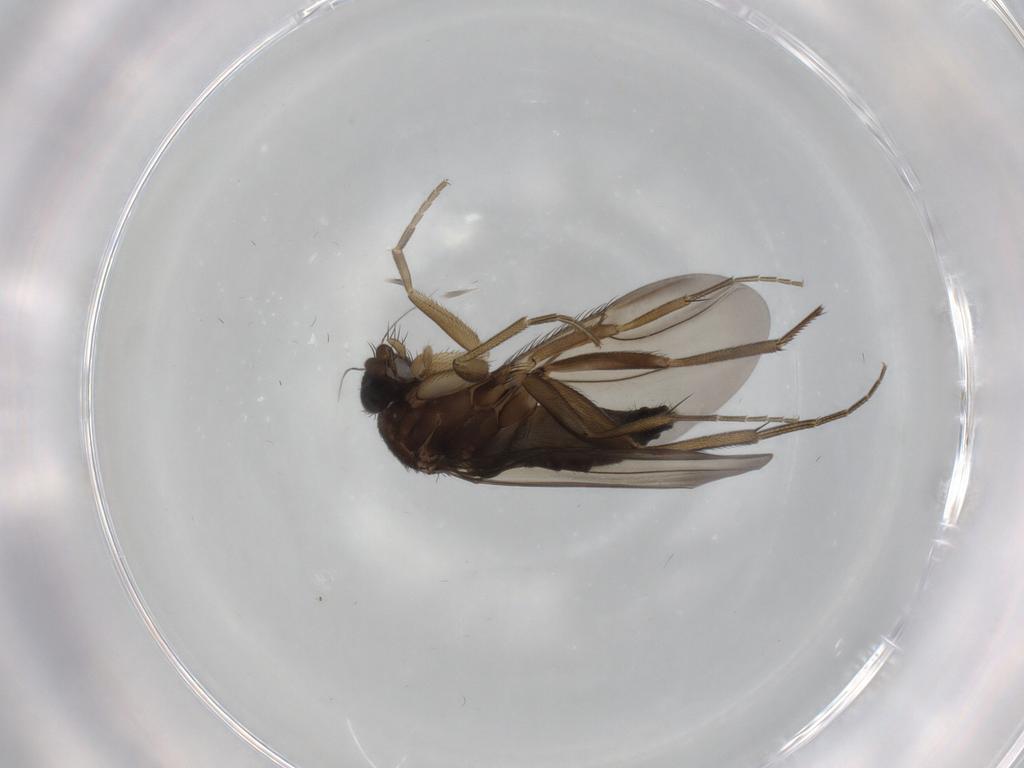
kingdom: Animalia
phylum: Arthropoda
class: Insecta
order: Diptera
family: Phoridae
